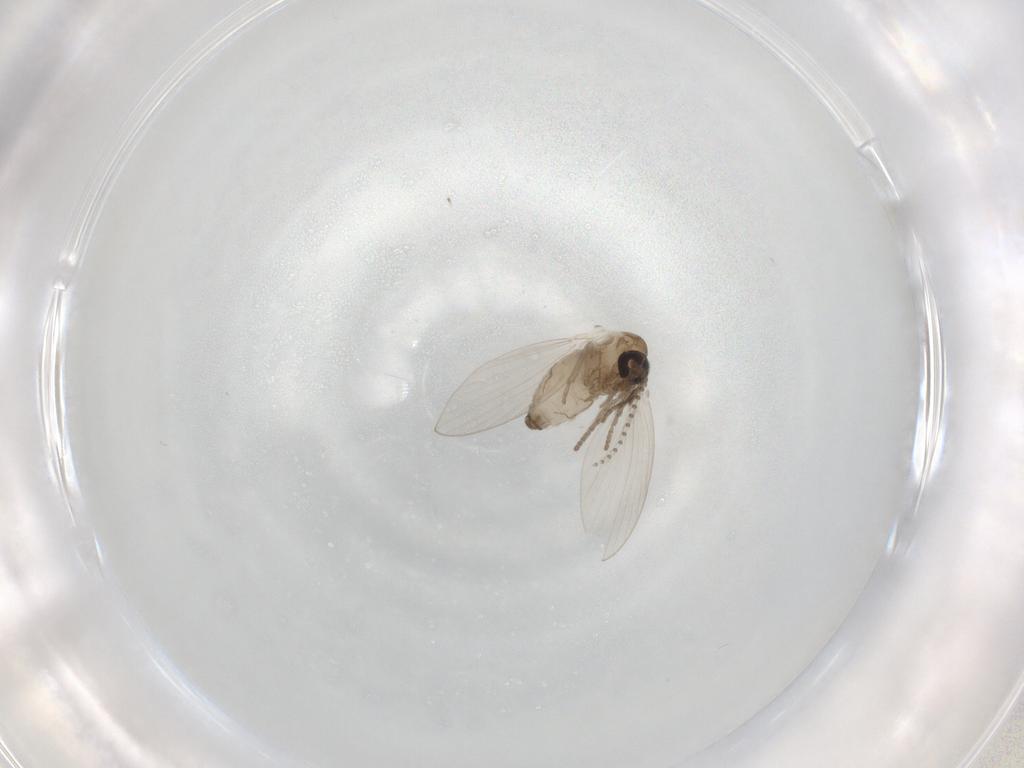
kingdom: Animalia
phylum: Arthropoda
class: Insecta
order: Diptera
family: Psychodidae
